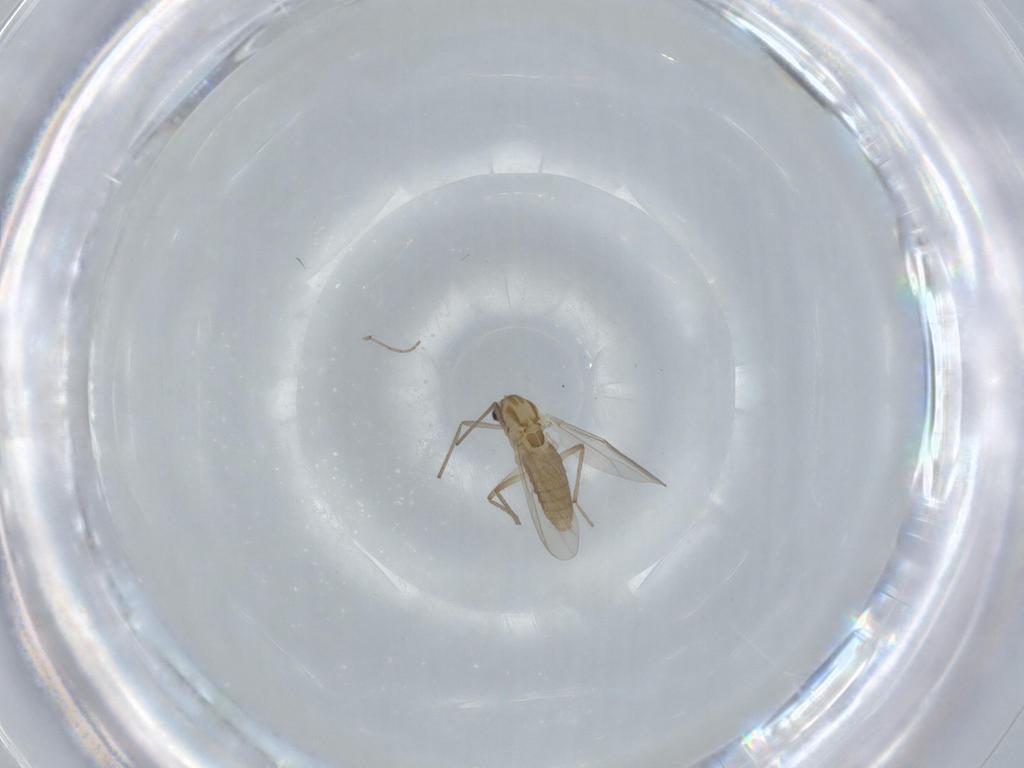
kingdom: Animalia
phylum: Arthropoda
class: Insecta
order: Diptera
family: Chironomidae
